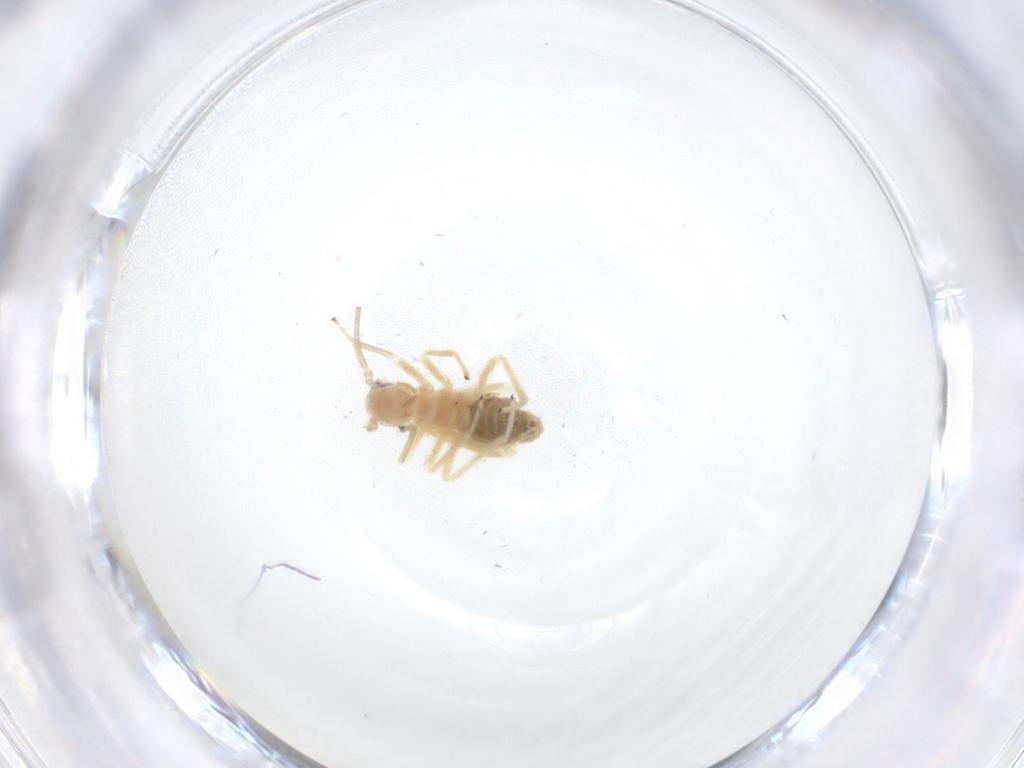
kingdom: Animalia
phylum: Arthropoda
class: Insecta
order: Psocodea
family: Caeciliusidae
